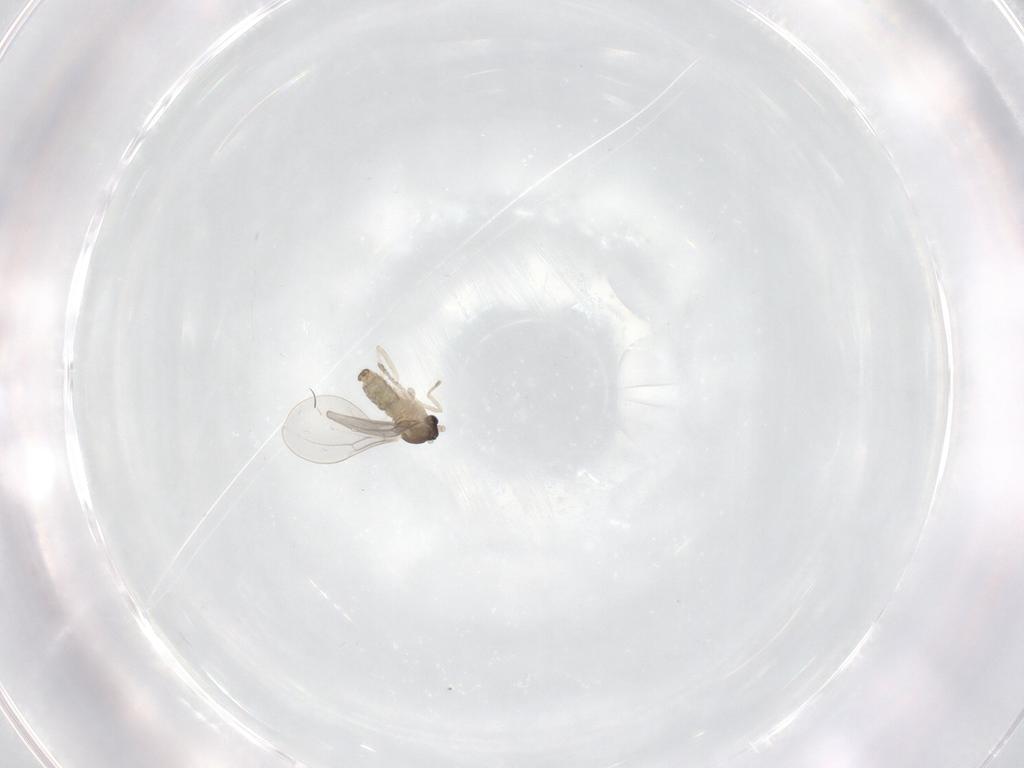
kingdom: Animalia
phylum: Arthropoda
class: Insecta
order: Diptera
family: Cecidomyiidae
